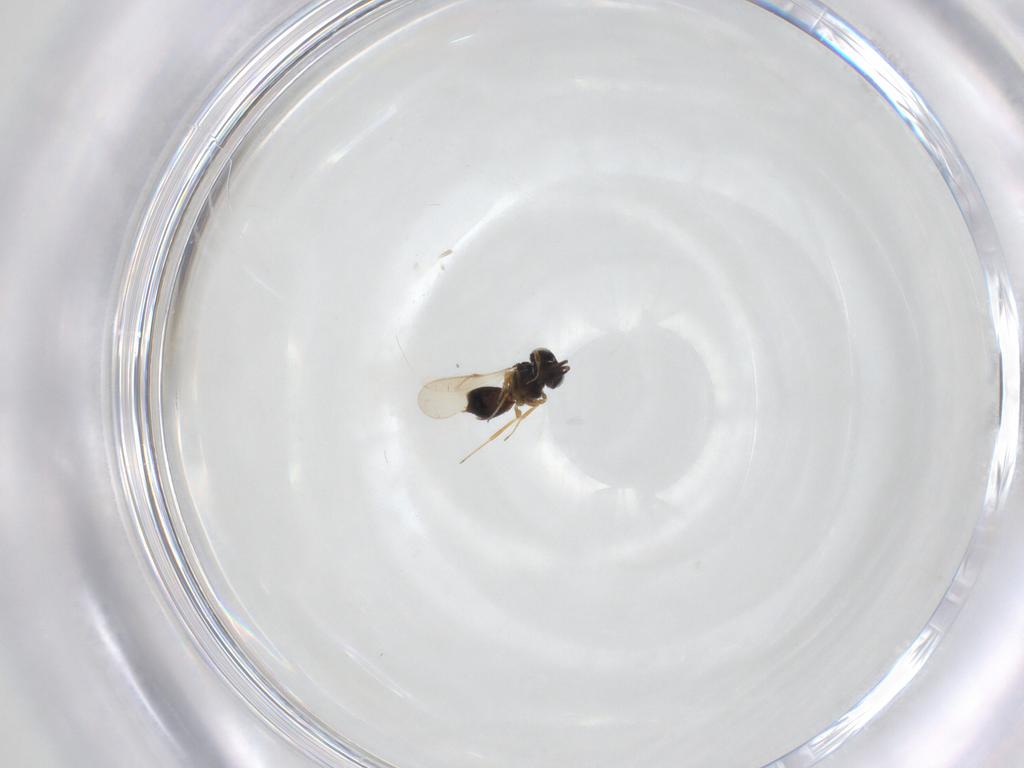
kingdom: Animalia
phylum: Arthropoda
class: Insecta
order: Hymenoptera
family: Scelionidae
